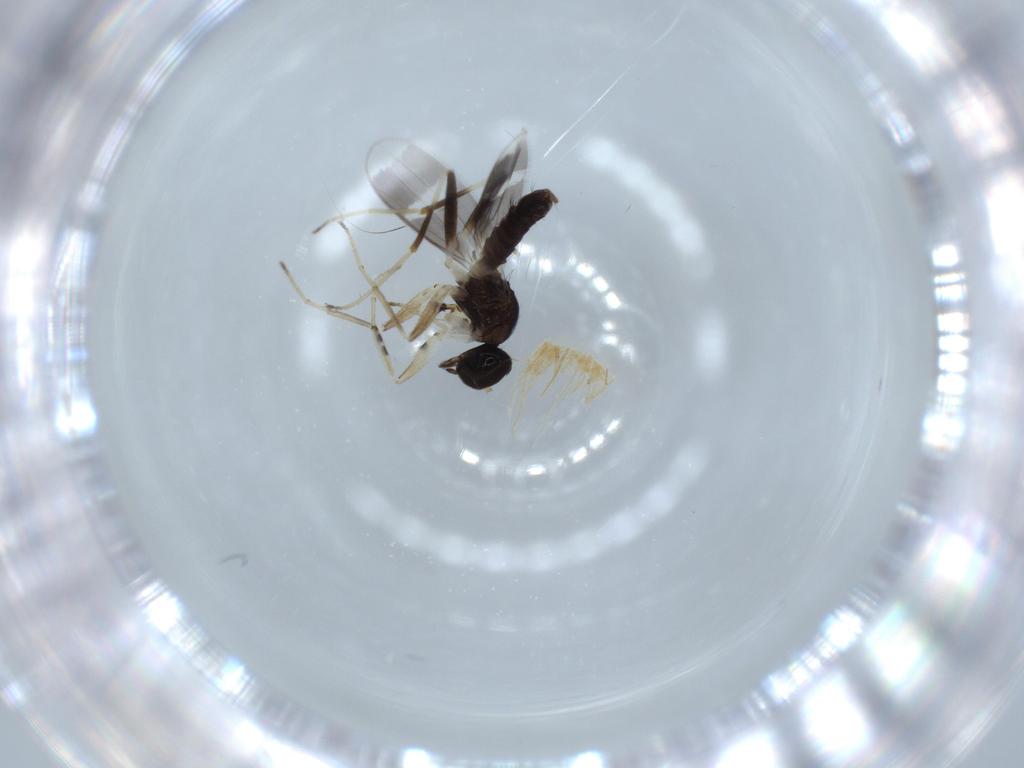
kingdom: Animalia
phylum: Arthropoda
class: Insecta
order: Diptera
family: Hybotidae
